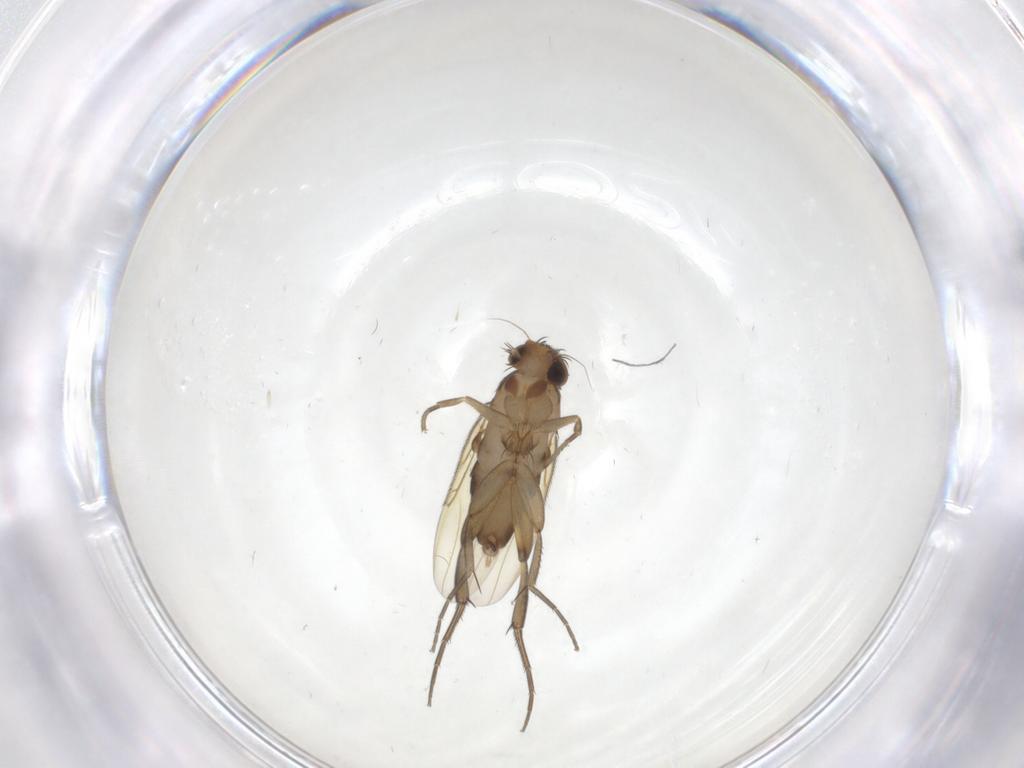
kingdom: Animalia
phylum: Arthropoda
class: Insecta
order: Diptera
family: Phoridae
